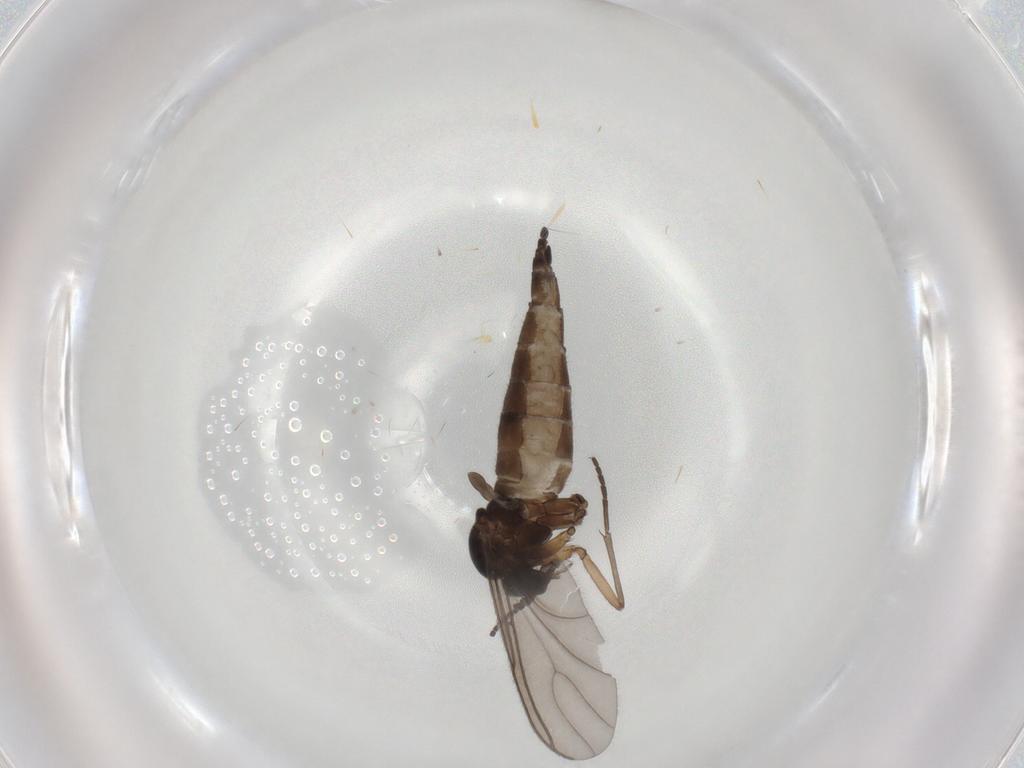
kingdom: Animalia
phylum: Arthropoda
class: Insecta
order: Diptera
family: Sciaridae
